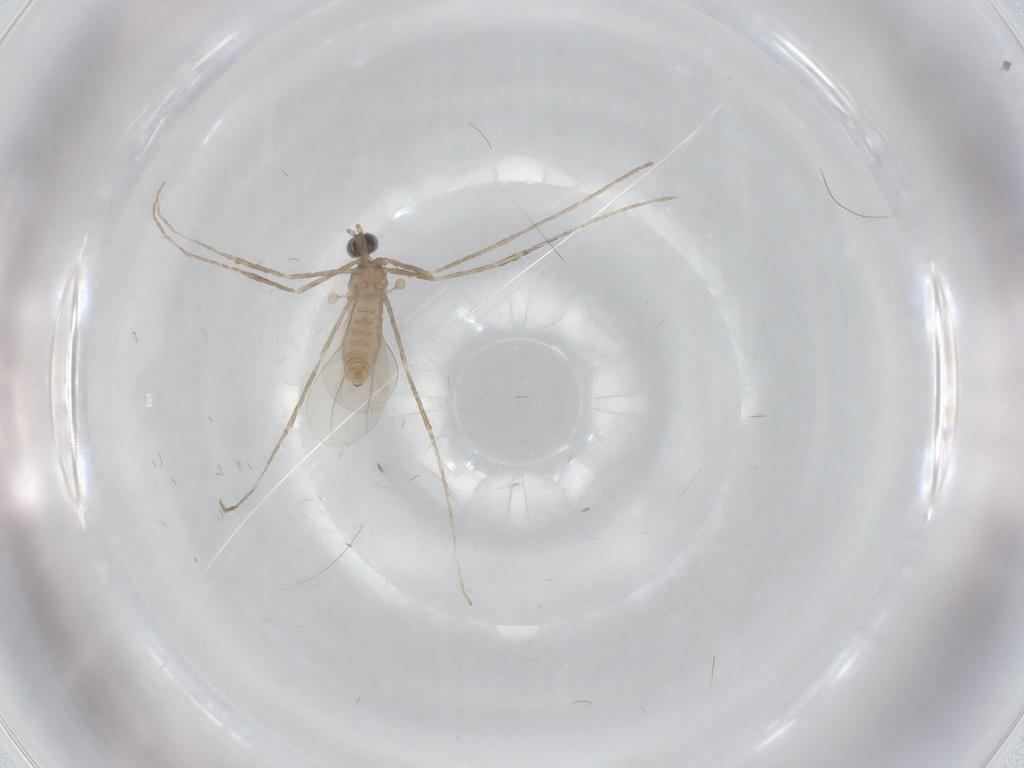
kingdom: Animalia
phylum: Arthropoda
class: Insecta
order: Diptera
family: Cecidomyiidae
